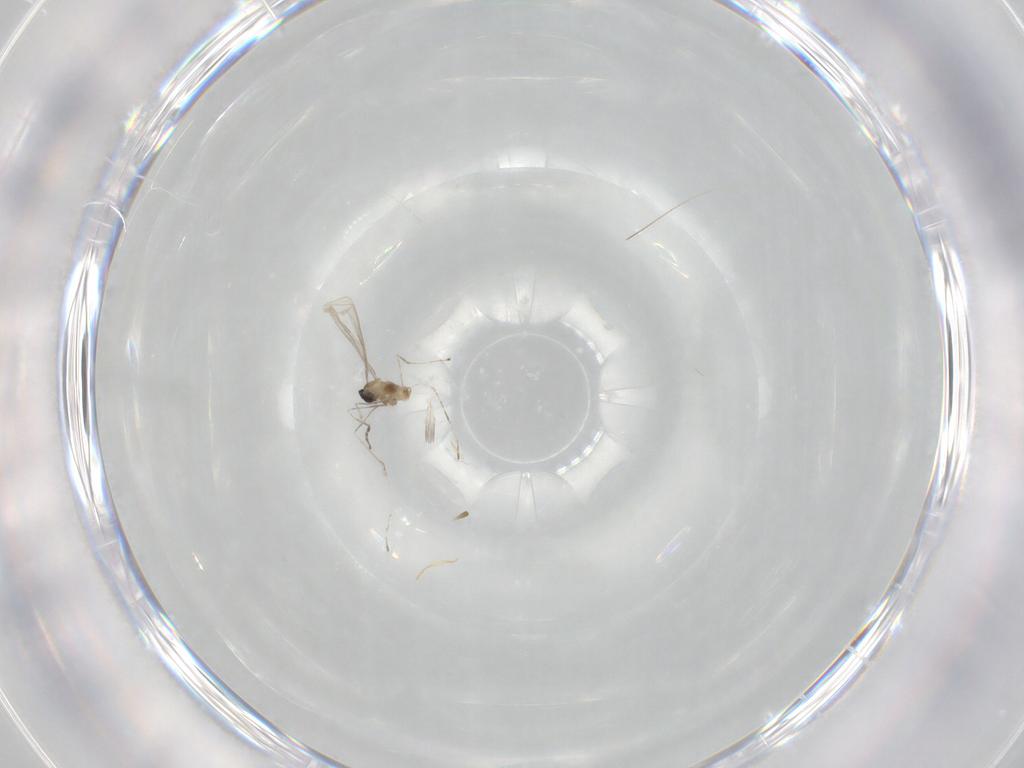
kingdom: Animalia
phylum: Arthropoda
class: Insecta
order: Diptera
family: Cecidomyiidae
